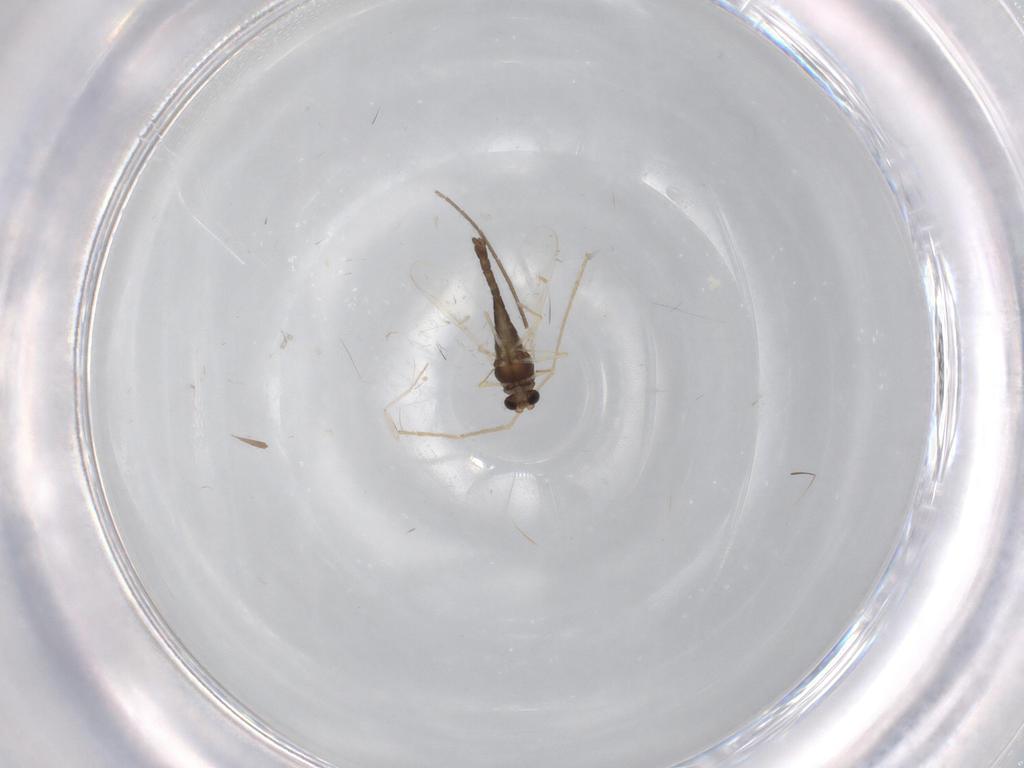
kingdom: Animalia
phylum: Arthropoda
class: Insecta
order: Diptera
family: Chironomidae
